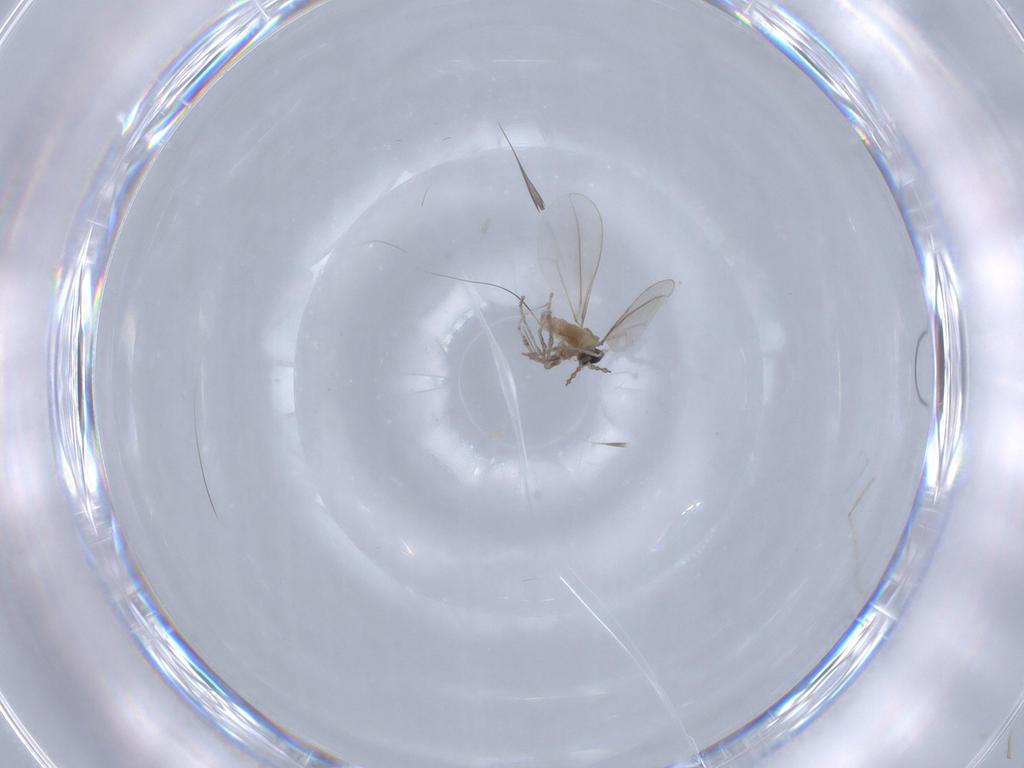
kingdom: Animalia
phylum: Arthropoda
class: Insecta
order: Diptera
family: Cecidomyiidae
